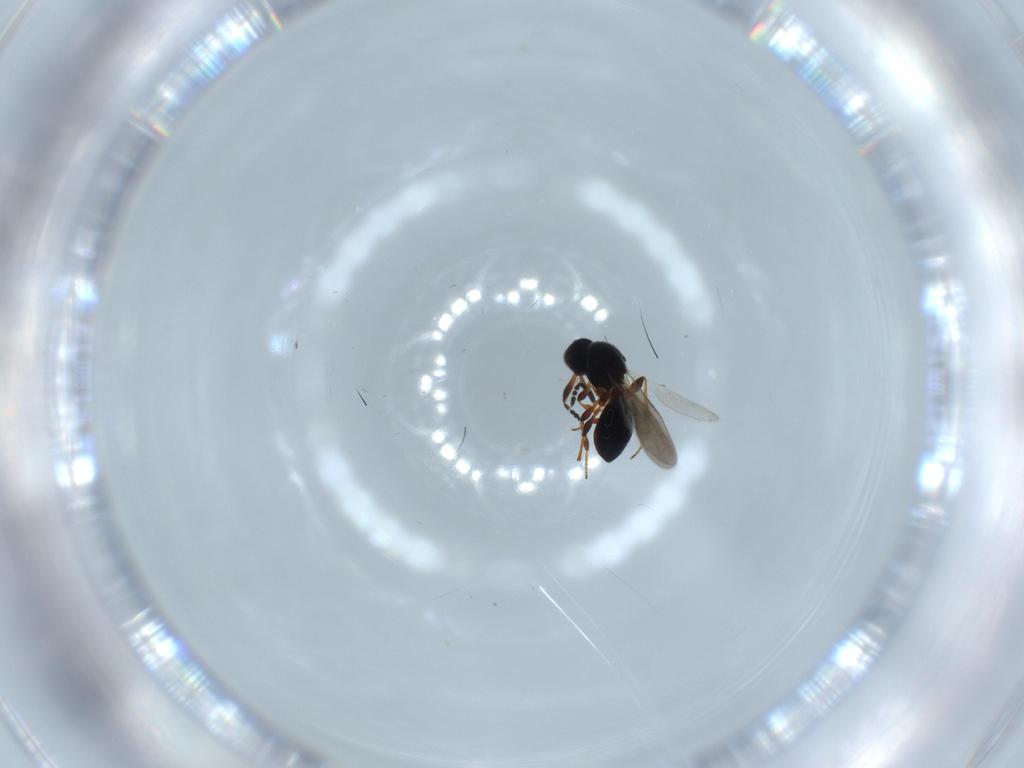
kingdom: Animalia
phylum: Arthropoda
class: Insecta
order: Hymenoptera
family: Platygastridae
